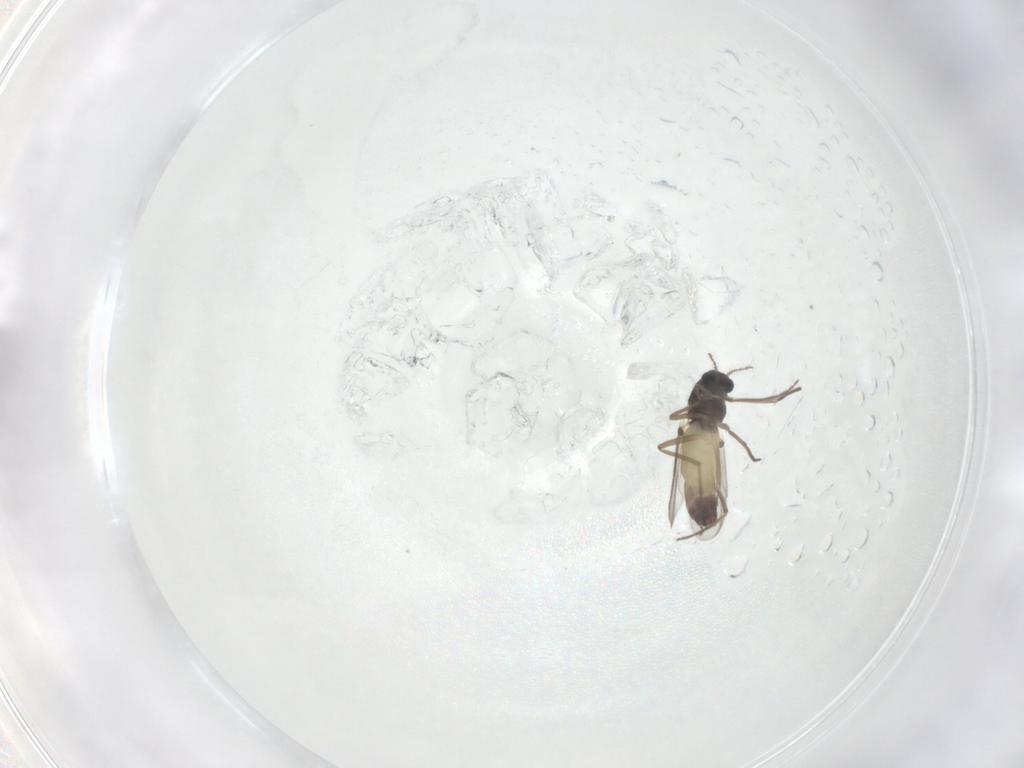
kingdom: Animalia
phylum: Arthropoda
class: Insecta
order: Diptera
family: Chironomidae
